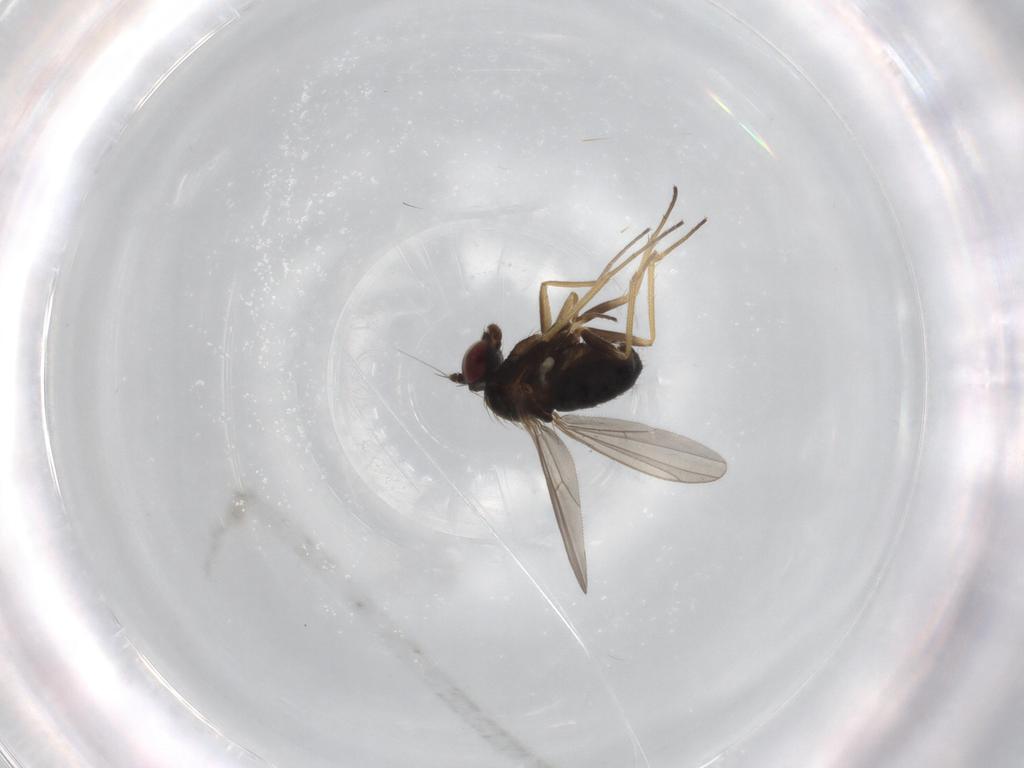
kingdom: Animalia
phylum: Arthropoda
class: Insecta
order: Diptera
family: Dolichopodidae
